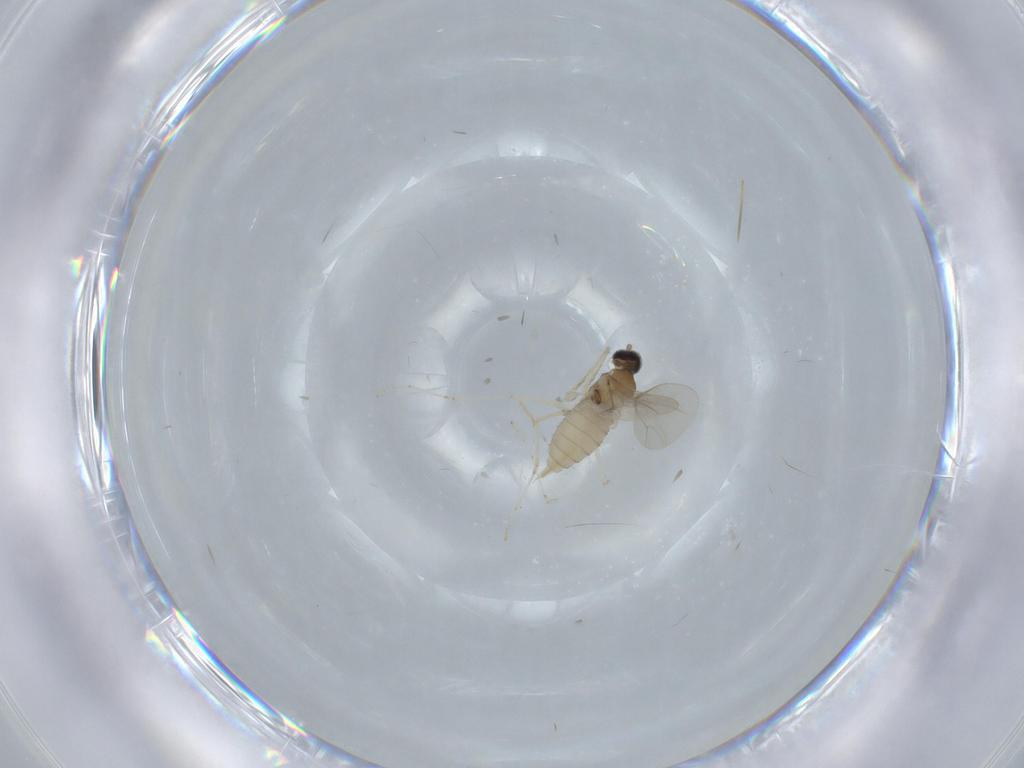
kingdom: Animalia
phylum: Arthropoda
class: Insecta
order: Diptera
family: Cecidomyiidae
